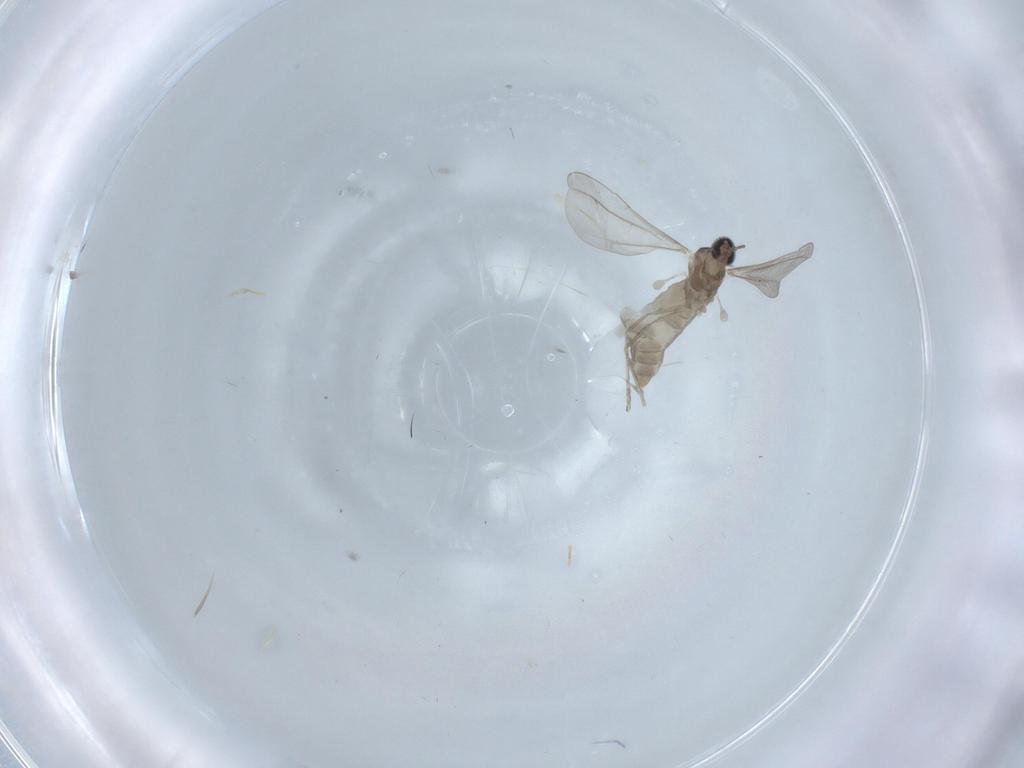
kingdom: Animalia
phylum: Arthropoda
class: Insecta
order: Diptera
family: Cecidomyiidae
